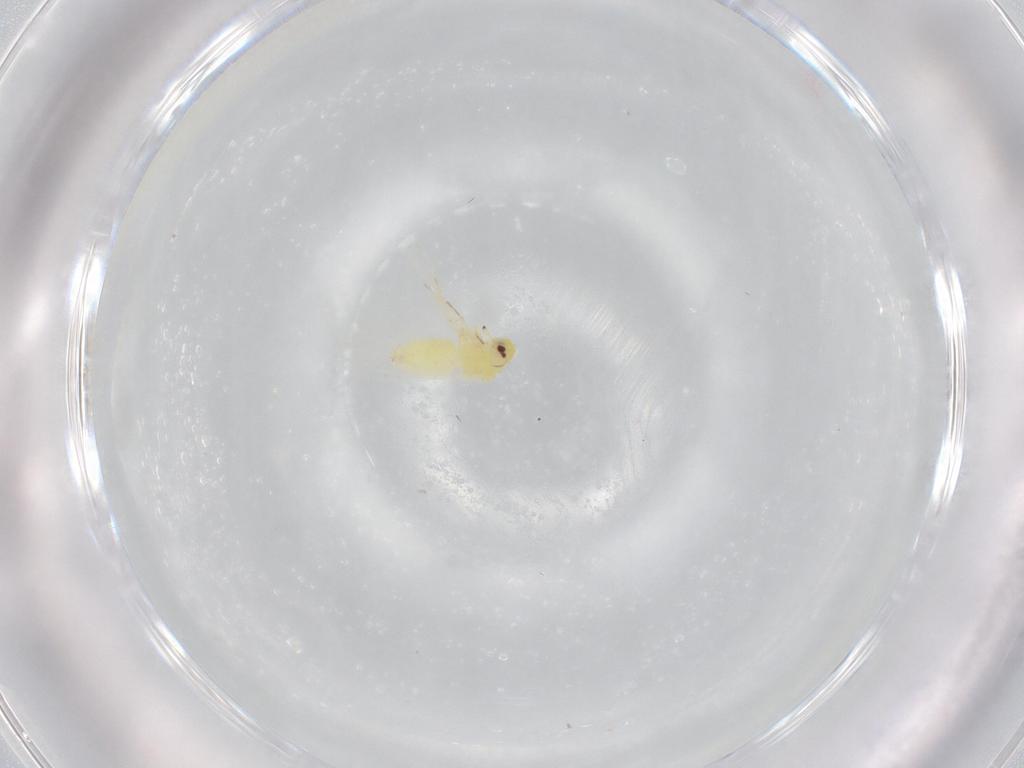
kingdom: Animalia
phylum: Arthropoda
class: Insecta
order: Hemiptera
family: Aleyrodidae
